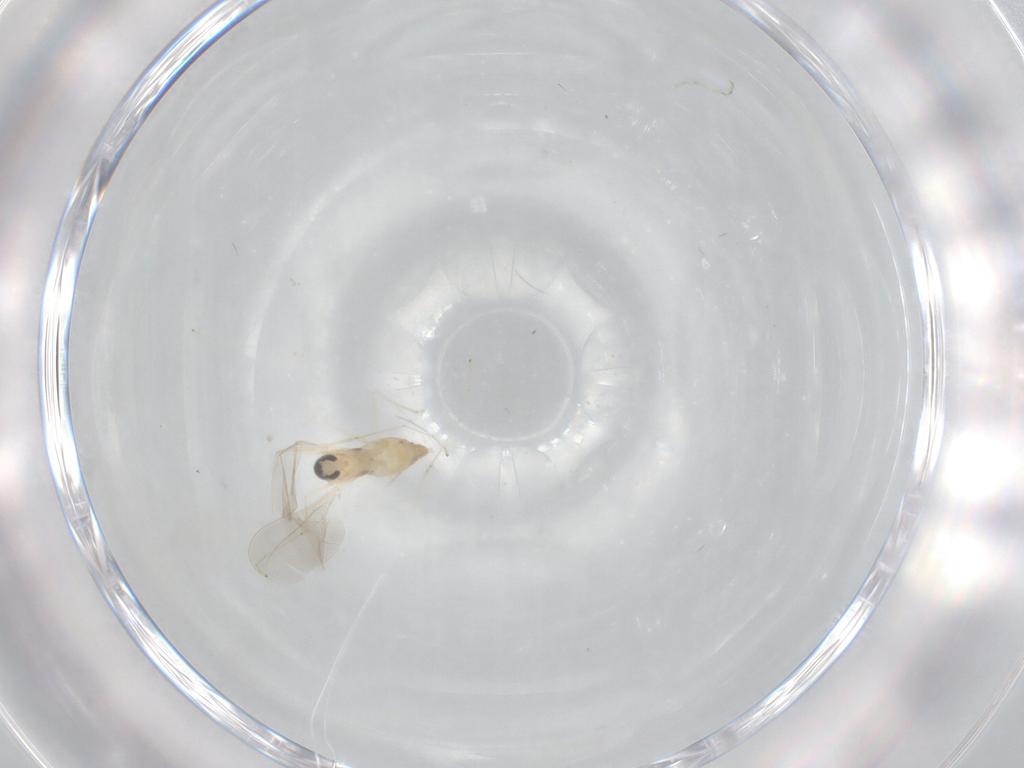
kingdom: Animalia
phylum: Arthropoda
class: Insecta
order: Diptera
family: Cecidomyiidae
